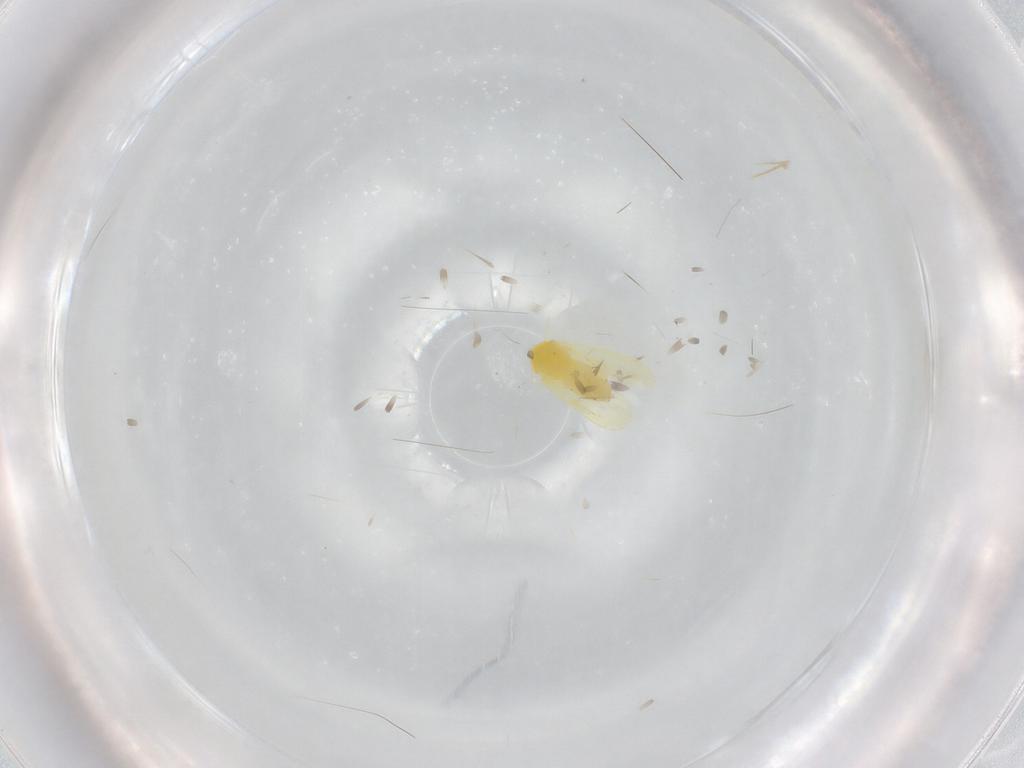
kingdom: Animalia
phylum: Arthropoda
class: Insecta
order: Hemiptera
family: Aleyrodidae
